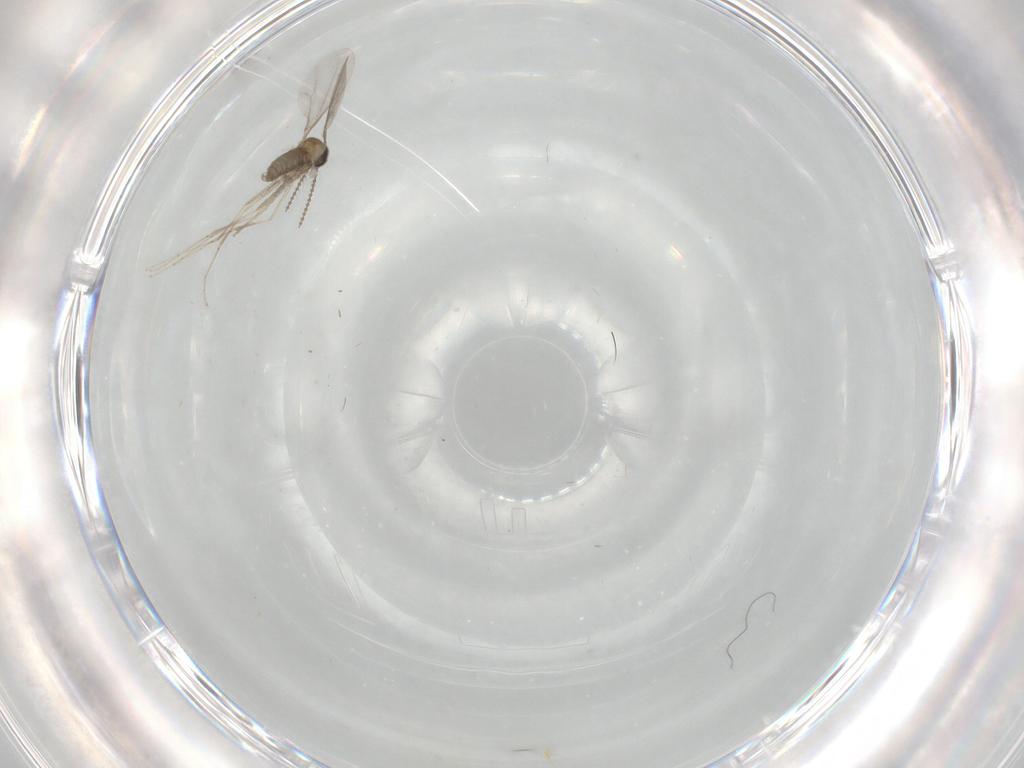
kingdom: Animalia
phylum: Arthropoda
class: Insecta
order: Diptera
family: Cecidomyiidae
